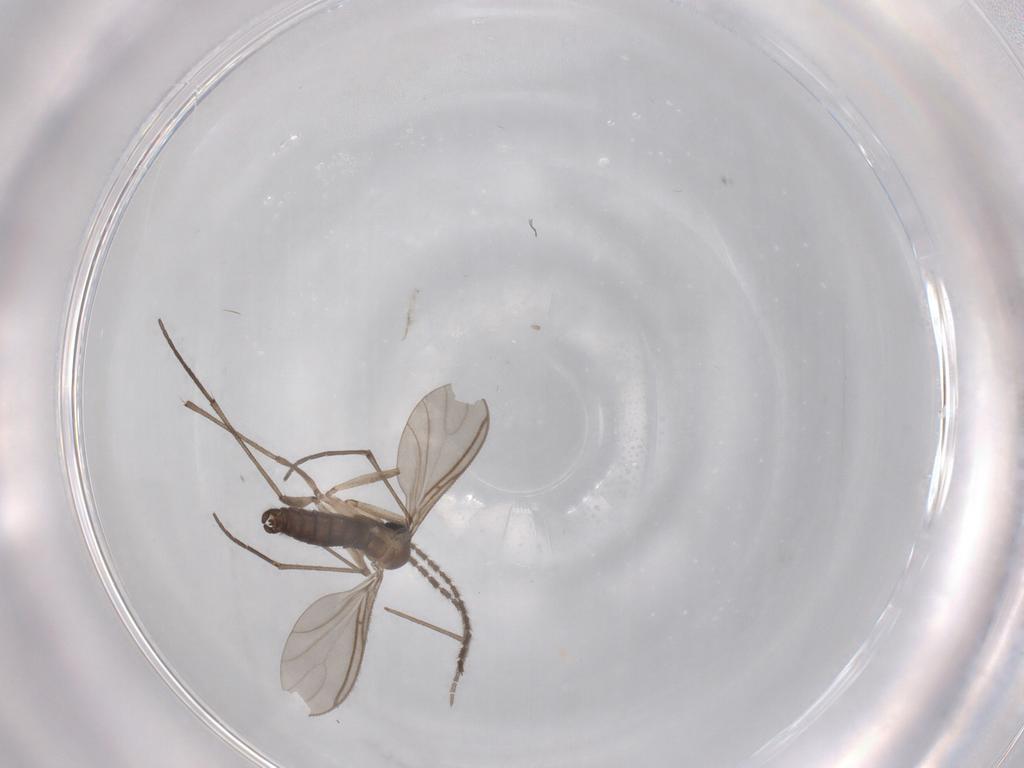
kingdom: Animalia
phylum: Arthropoda
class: Insecta
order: Diptera
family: Sciaridae
